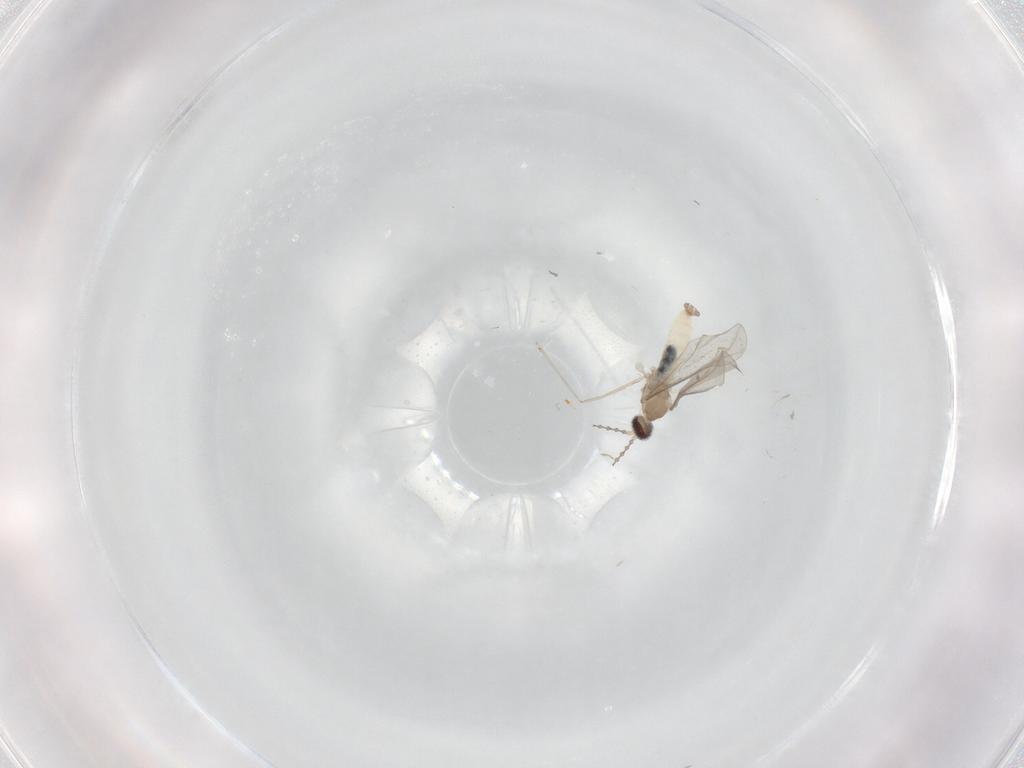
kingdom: Animalia
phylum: Arthropoda
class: Insecta
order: Diptera
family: Cecidomyiidae
